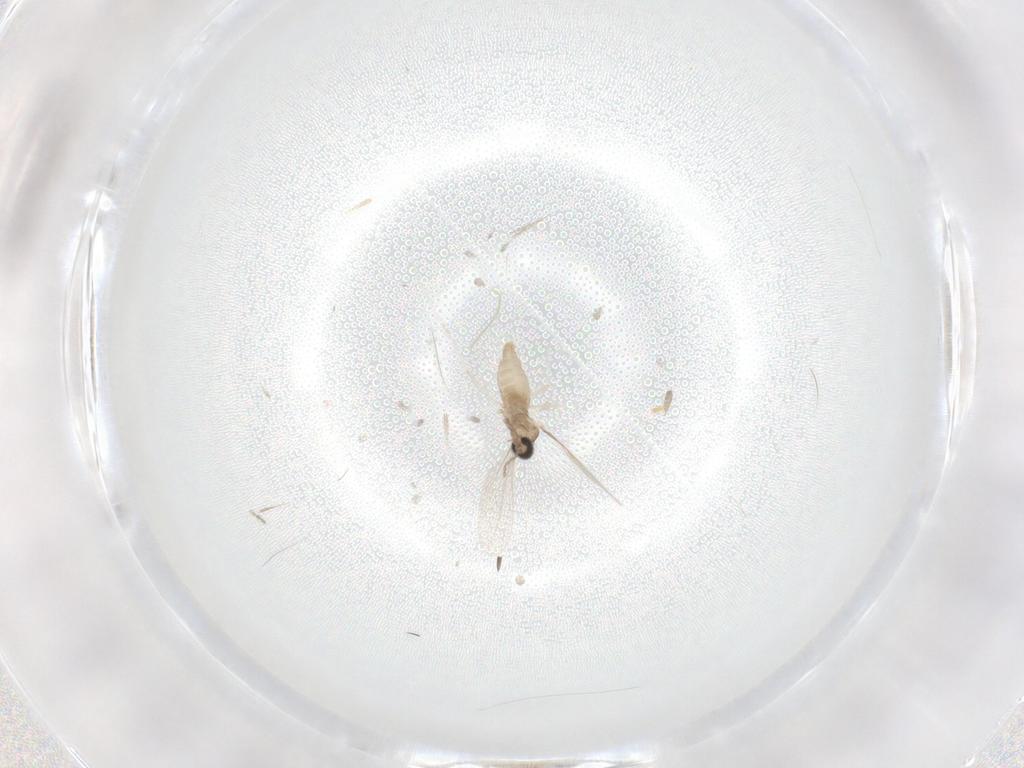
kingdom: Animalia
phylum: Arthropoda
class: Insecta
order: Diptera
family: Cecidomyiidae
